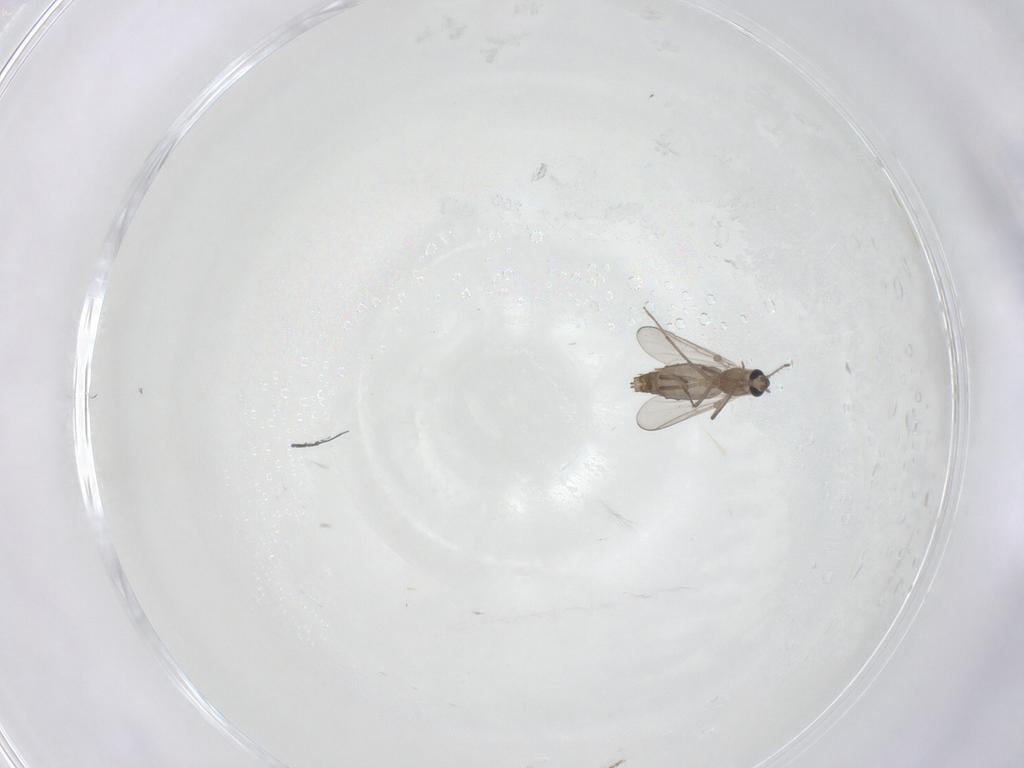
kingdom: Animalia
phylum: Arthropoda
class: Insecta
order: Diptera
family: Chironomidae
